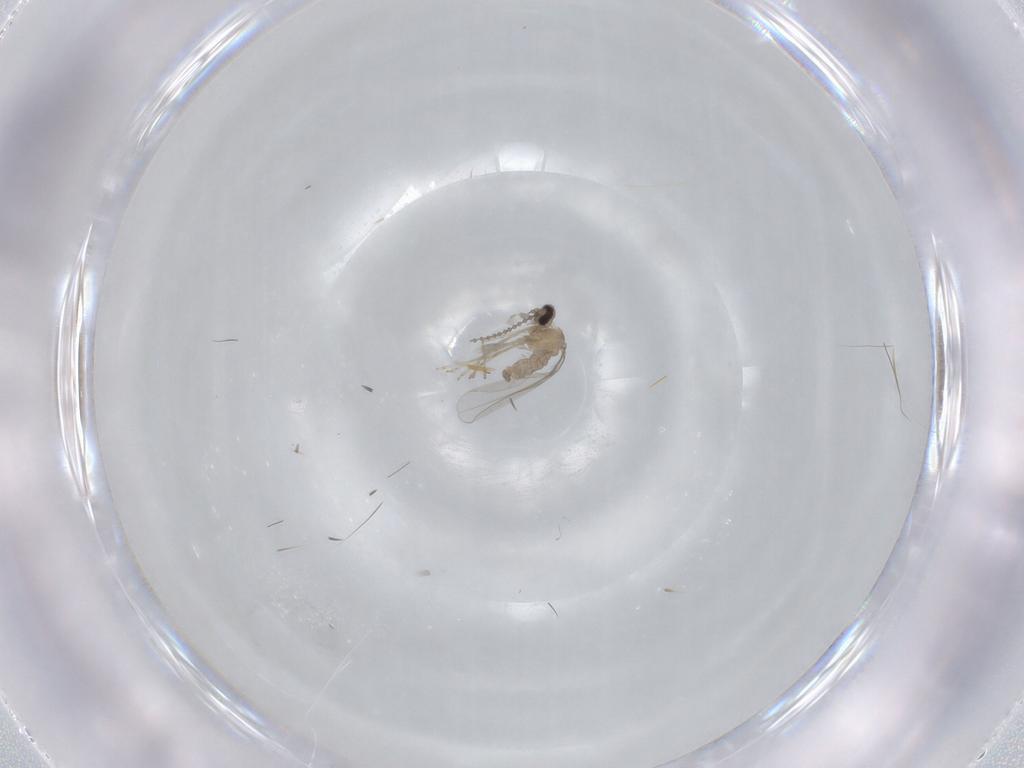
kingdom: Animalia
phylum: Arthropoda
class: Insecta
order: Diptera
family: Cecidomyiidae
